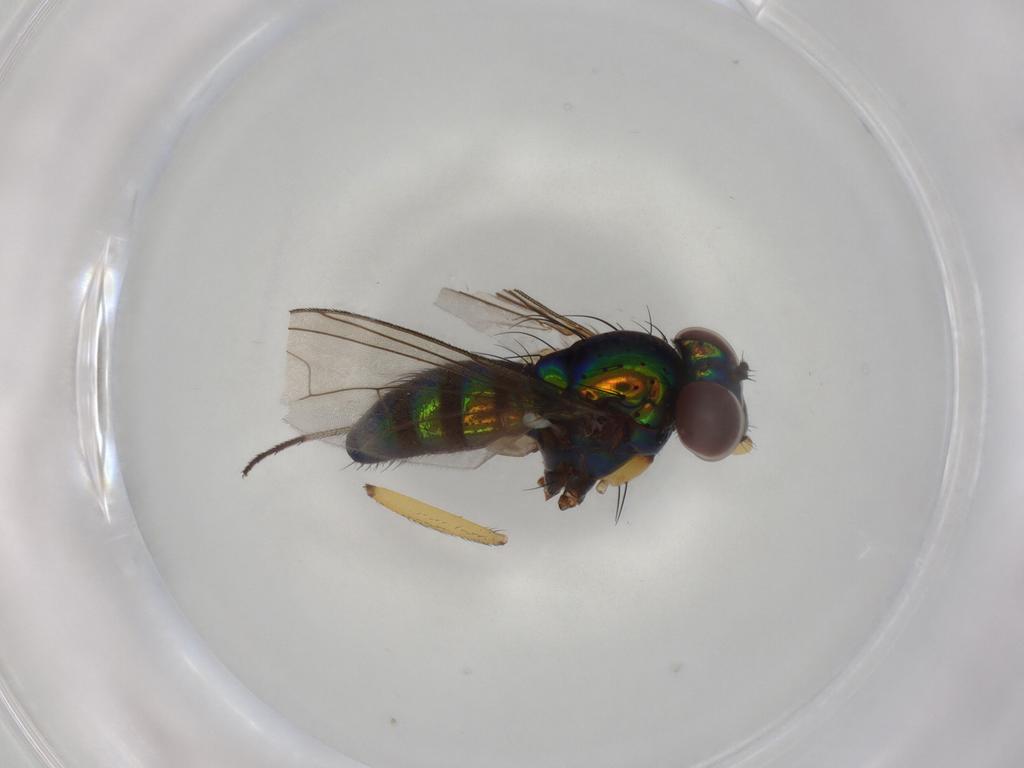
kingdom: Animalia
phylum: Arthropoda
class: Insecta
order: Diptera
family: Dolichopodidae
